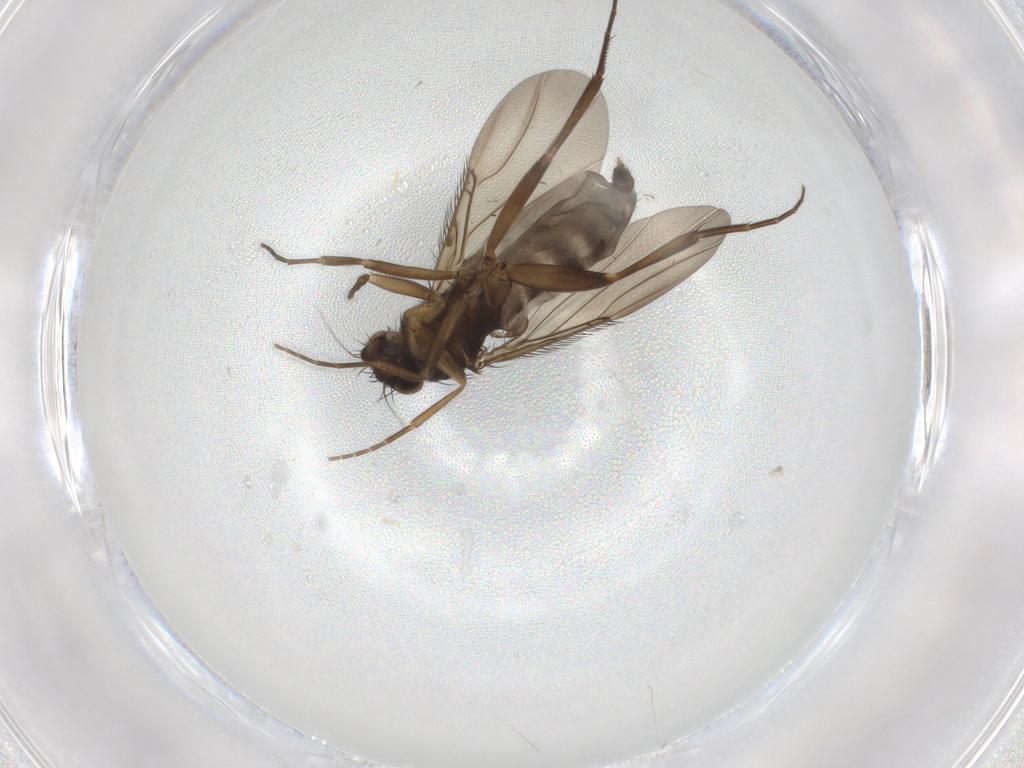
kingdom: Animalia
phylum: Arthropoda
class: Insecta
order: Diptera
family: Phoridae
